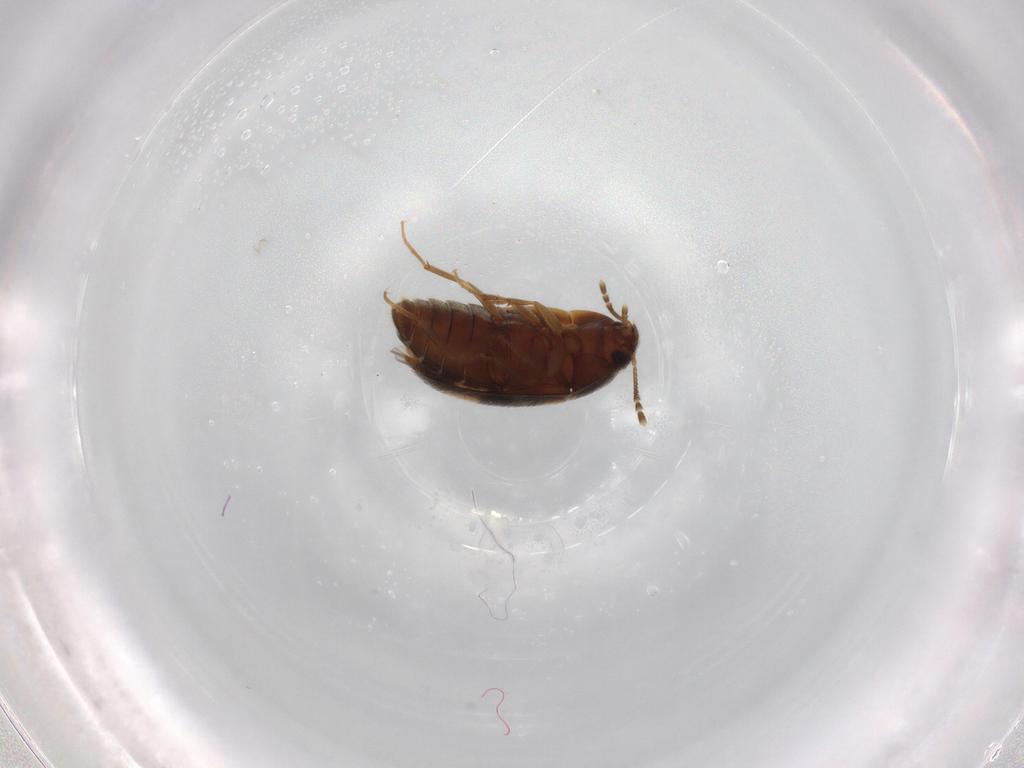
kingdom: Animalia
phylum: Arthropoda
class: Insecta
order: Coleoptera
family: Mycetophagidae
